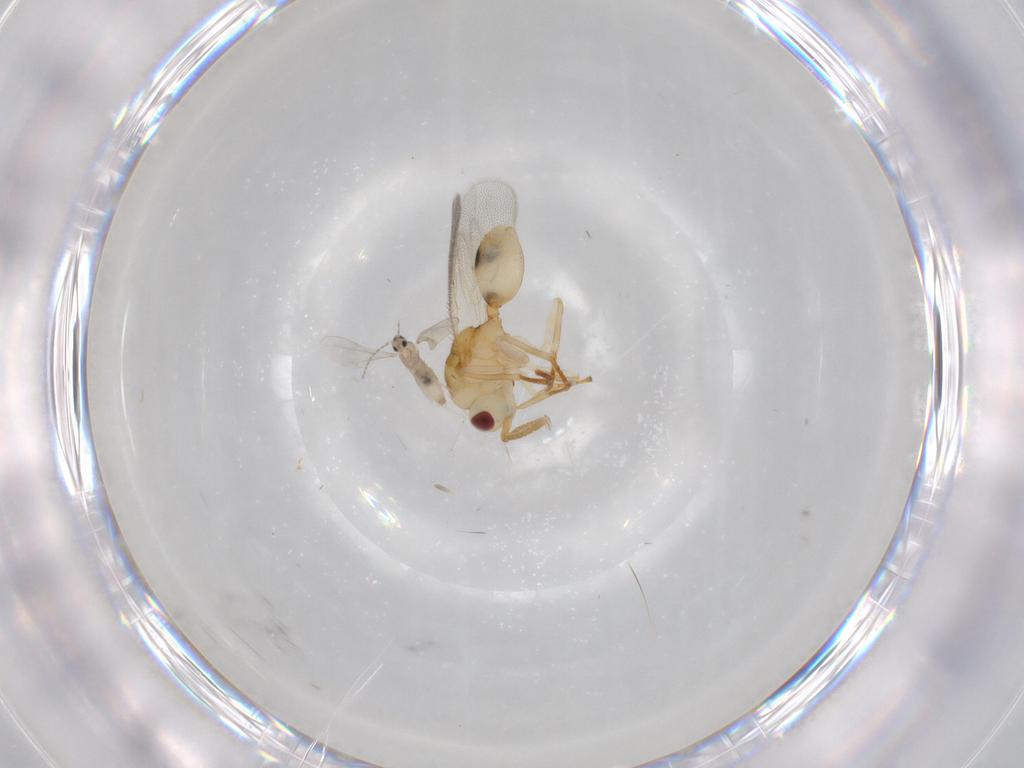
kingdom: Animalia
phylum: Arthropoda
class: Insecta
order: Diptera
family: Cecidomyiidae
